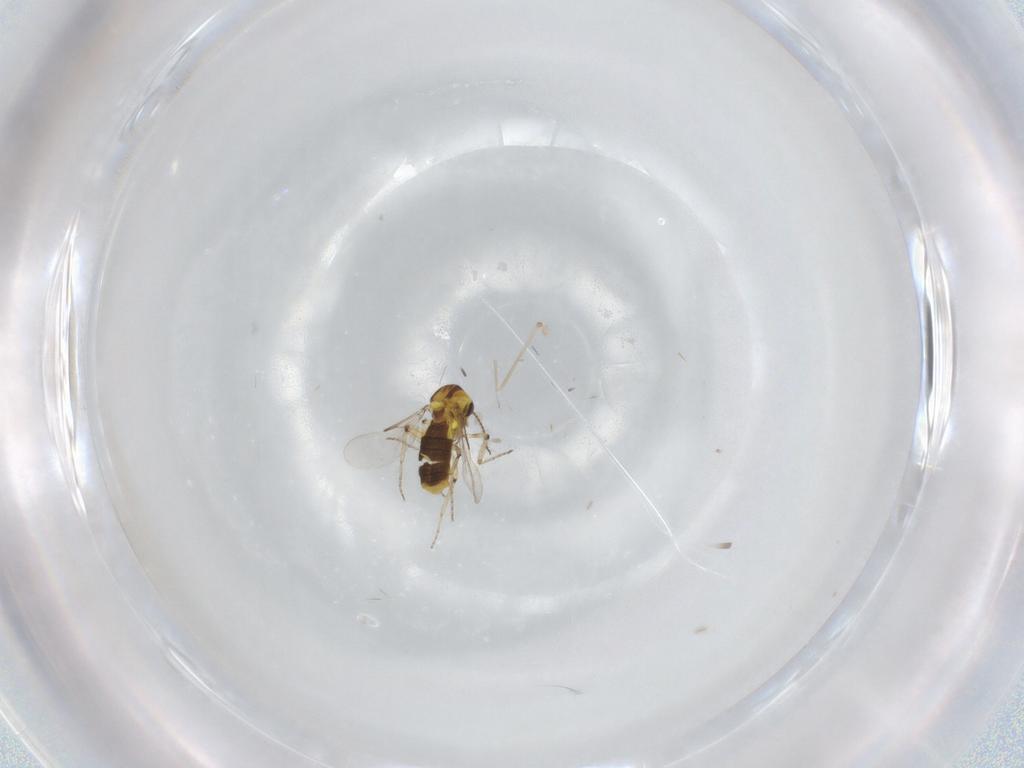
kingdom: Animalia
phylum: Arthropoda
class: Insecta
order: Diptera
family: Cecidomyiidae
